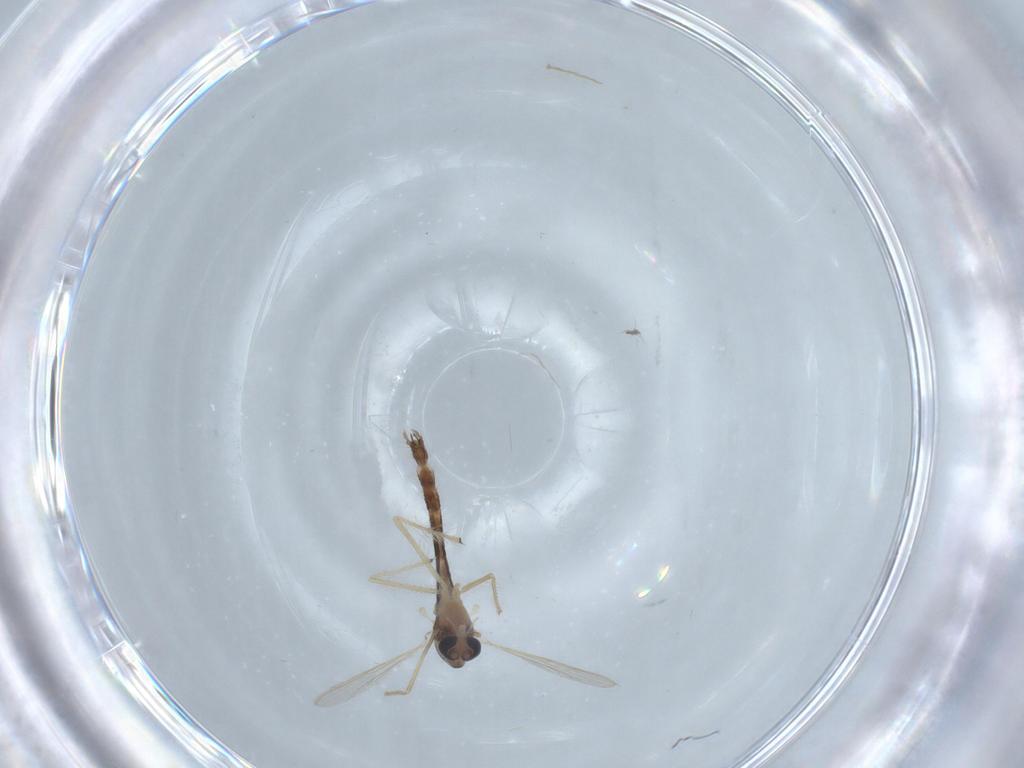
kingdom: Animalia
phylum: Arthropoda
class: Insecta
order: Diptera
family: Chironomidae
